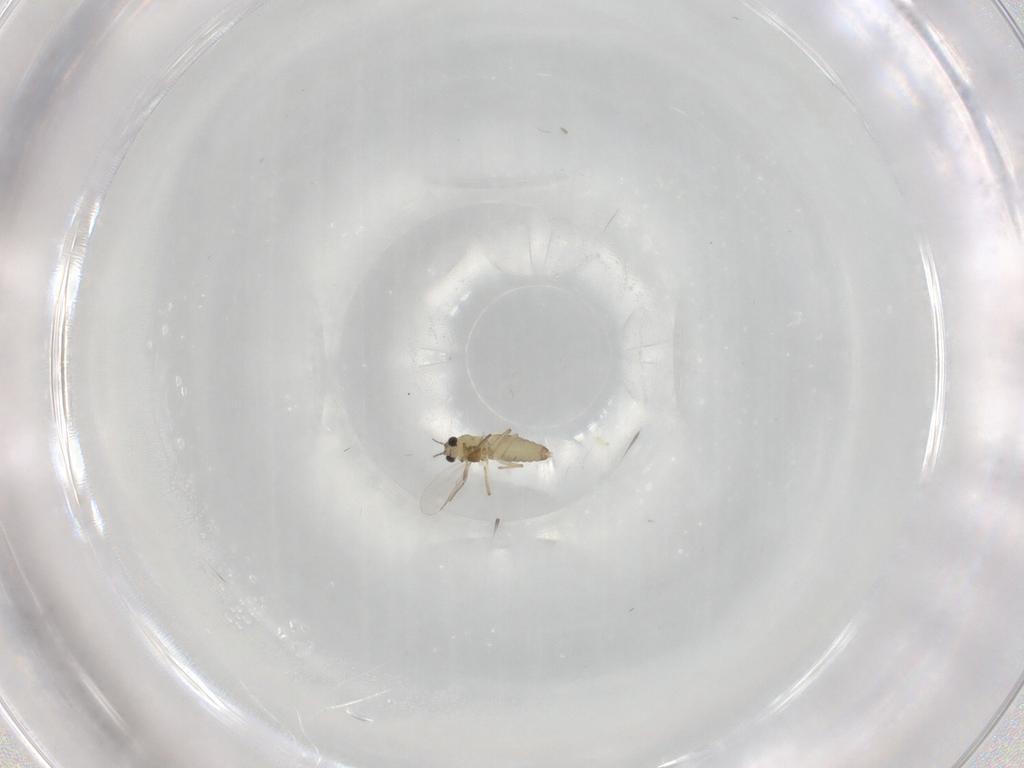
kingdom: Animalia
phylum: Arthropoda
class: Insecta
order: Diptera
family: Chironomidae
